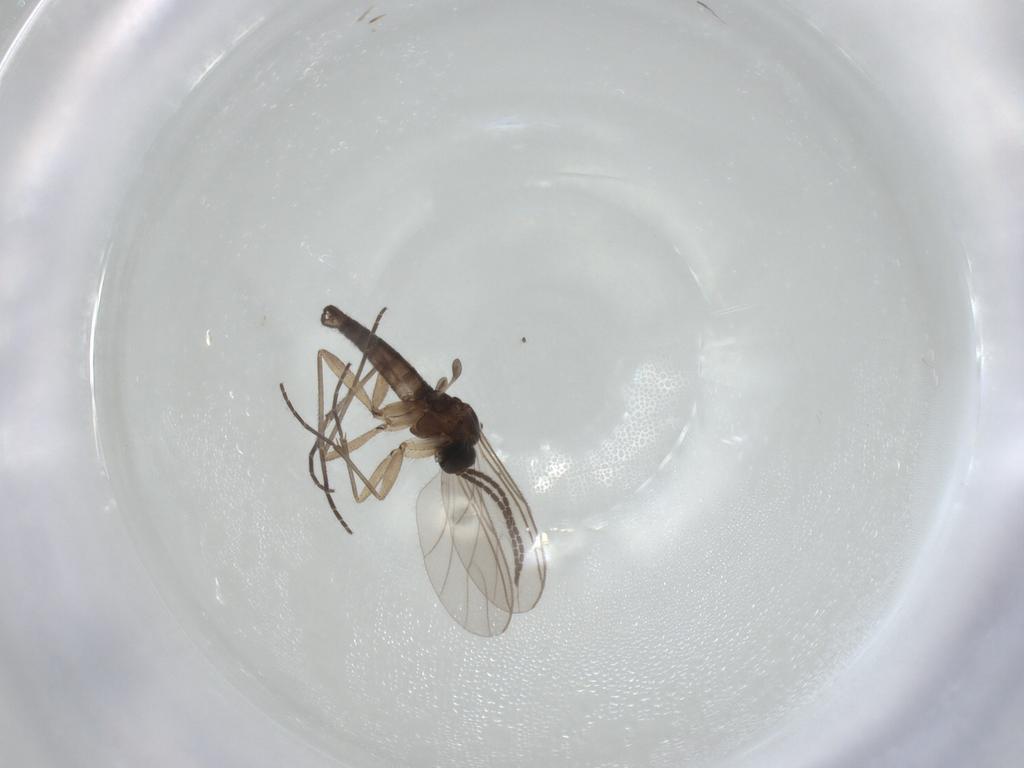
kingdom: Animalia
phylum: Arthropoda
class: Insecta
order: Diptera
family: Sciaridae
